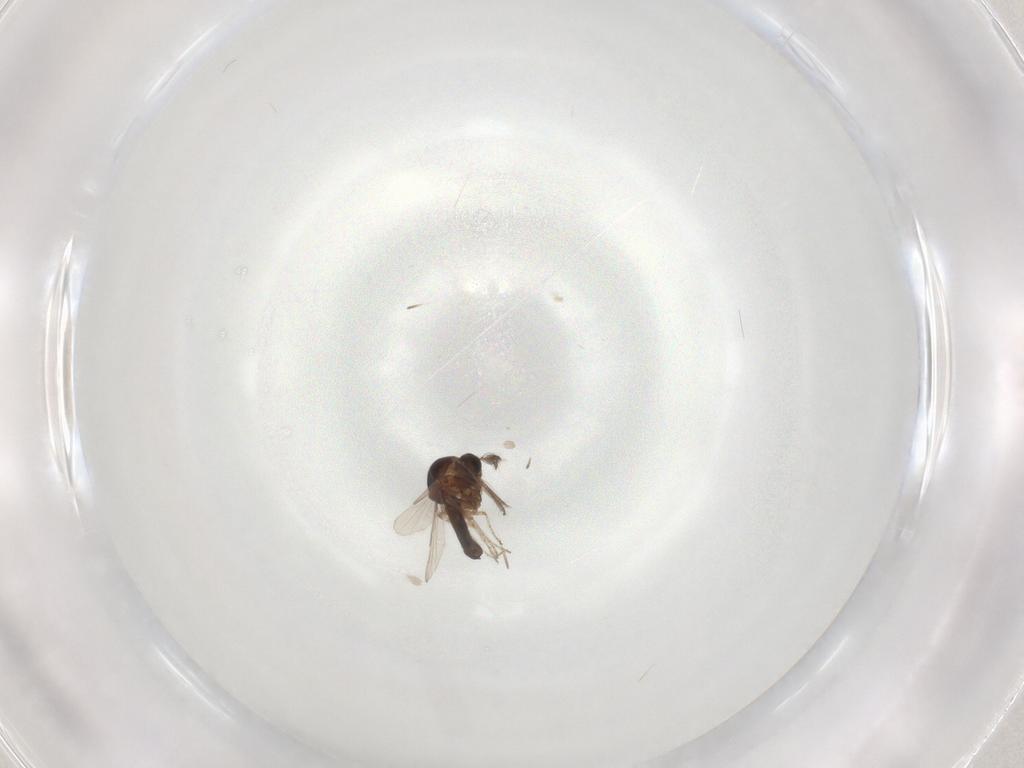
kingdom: Animalia
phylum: Arthropoda
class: Insecta
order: Diptera
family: Ceratopogonidae
